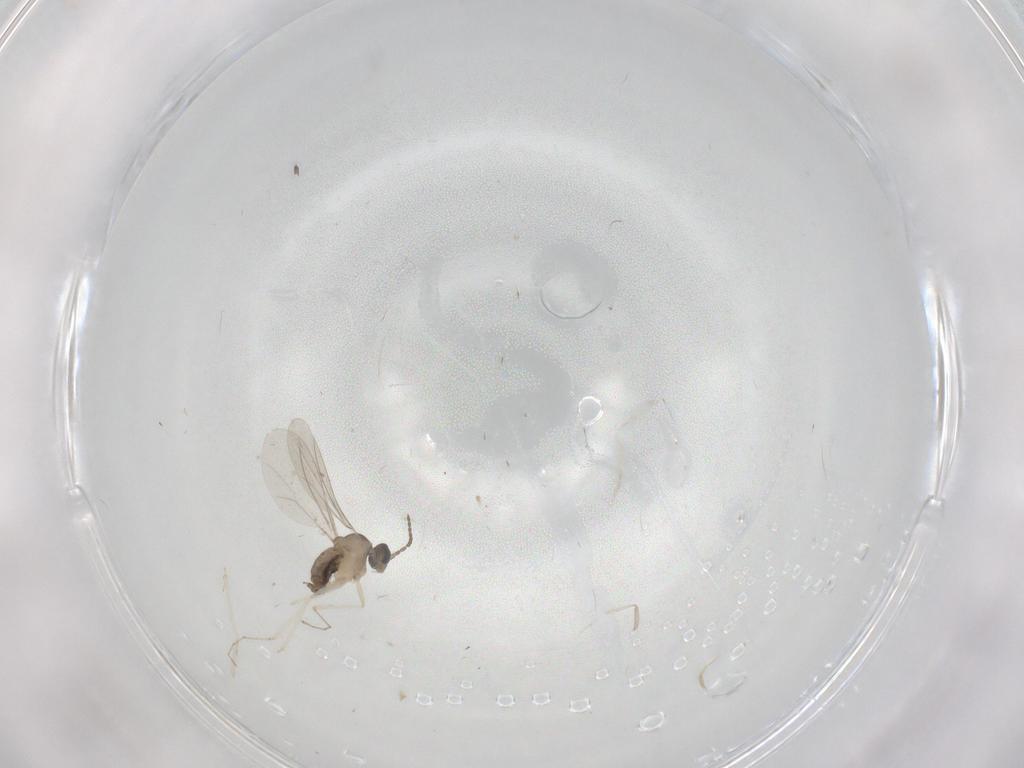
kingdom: Animalia
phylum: Arthropoda
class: Insecta
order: Diptera
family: Cecidomyiidae
